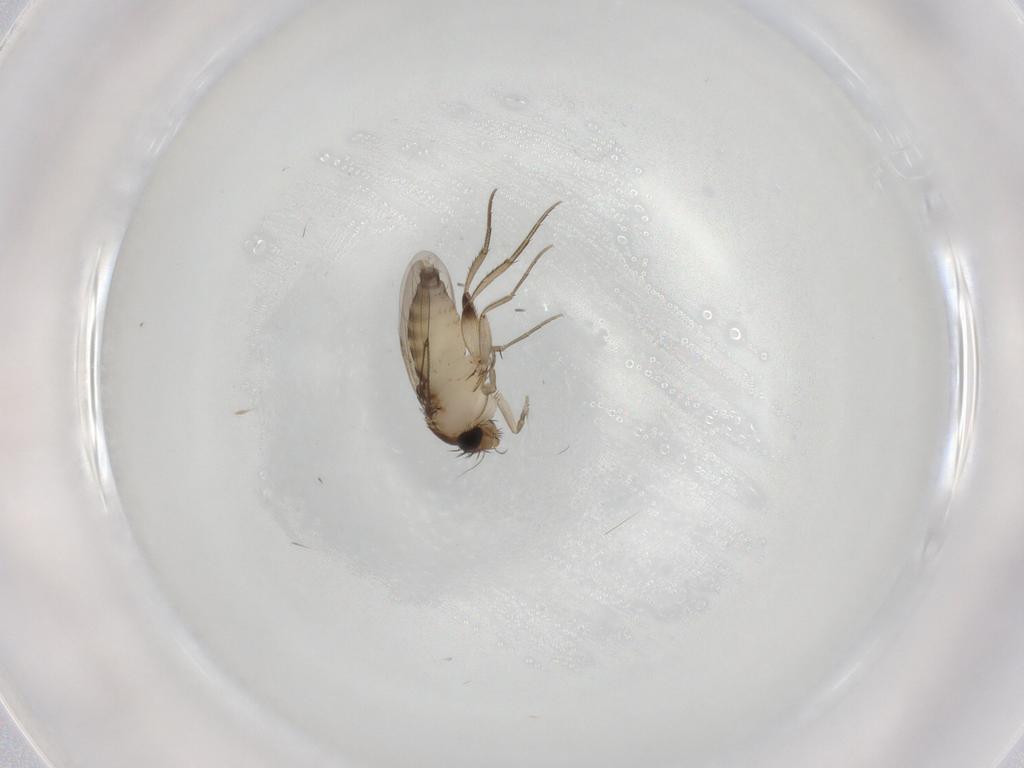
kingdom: Animalia
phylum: Arthropoda
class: Insecta
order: Diptera
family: Phoridae
